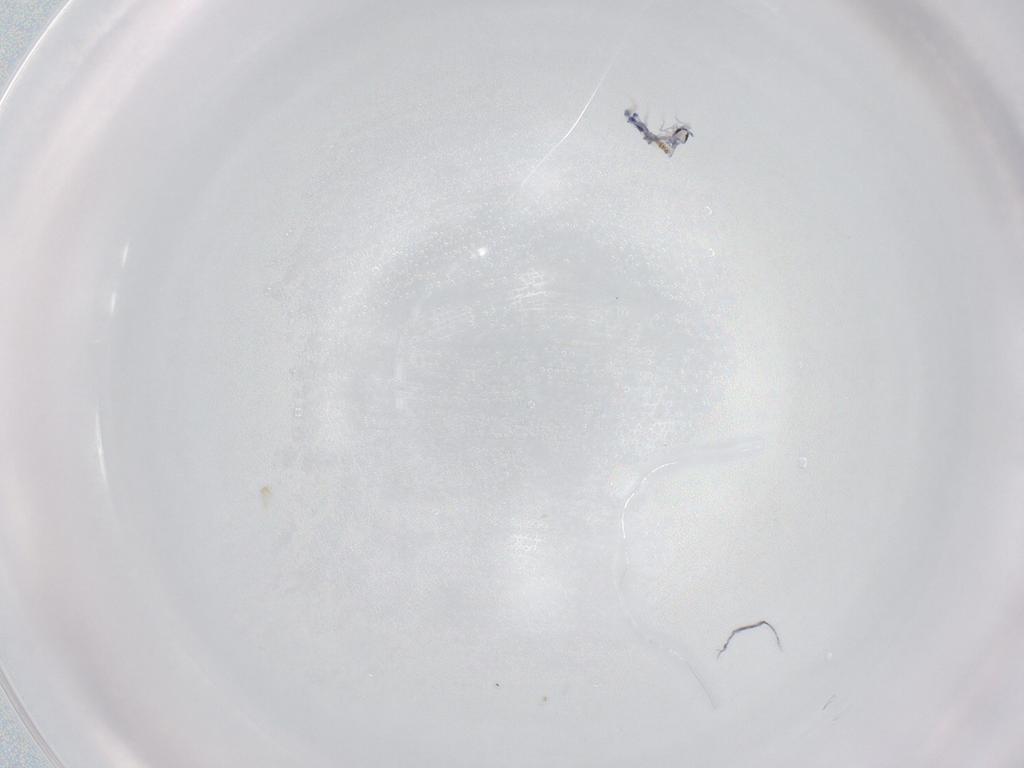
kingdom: Animalia
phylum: Arthropoda
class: Collembola
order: Entomobryomorpha
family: Entomobryidae
